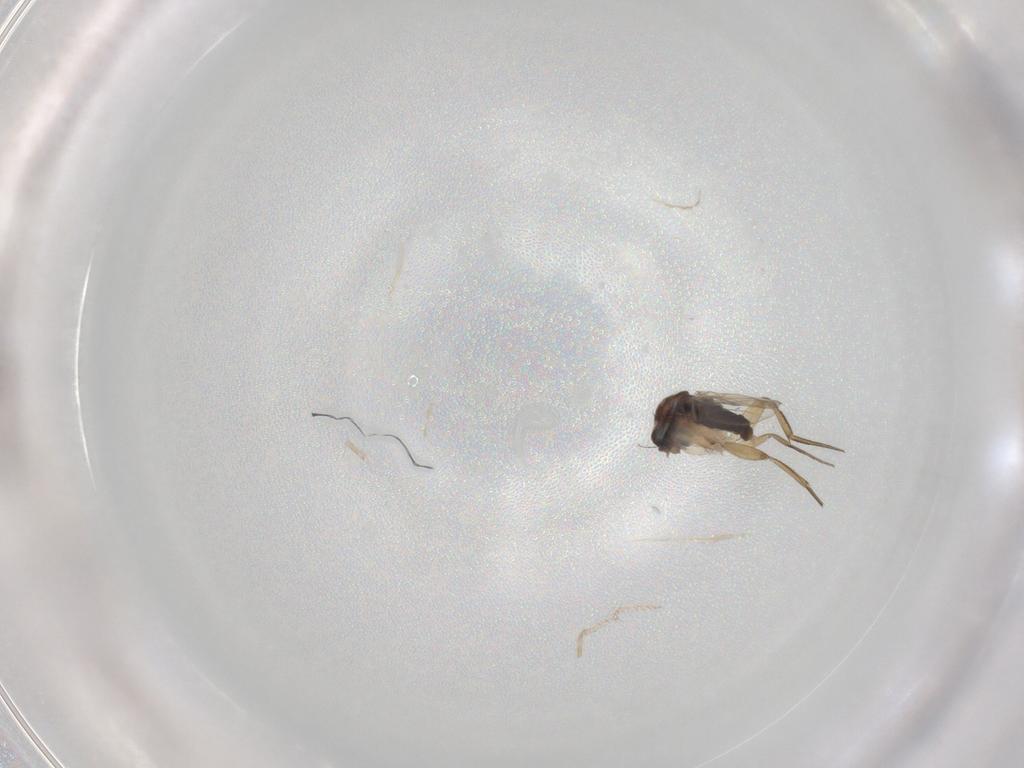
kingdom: Animalia
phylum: Arthropoda
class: Insecta
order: Diptera
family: Phoridae
